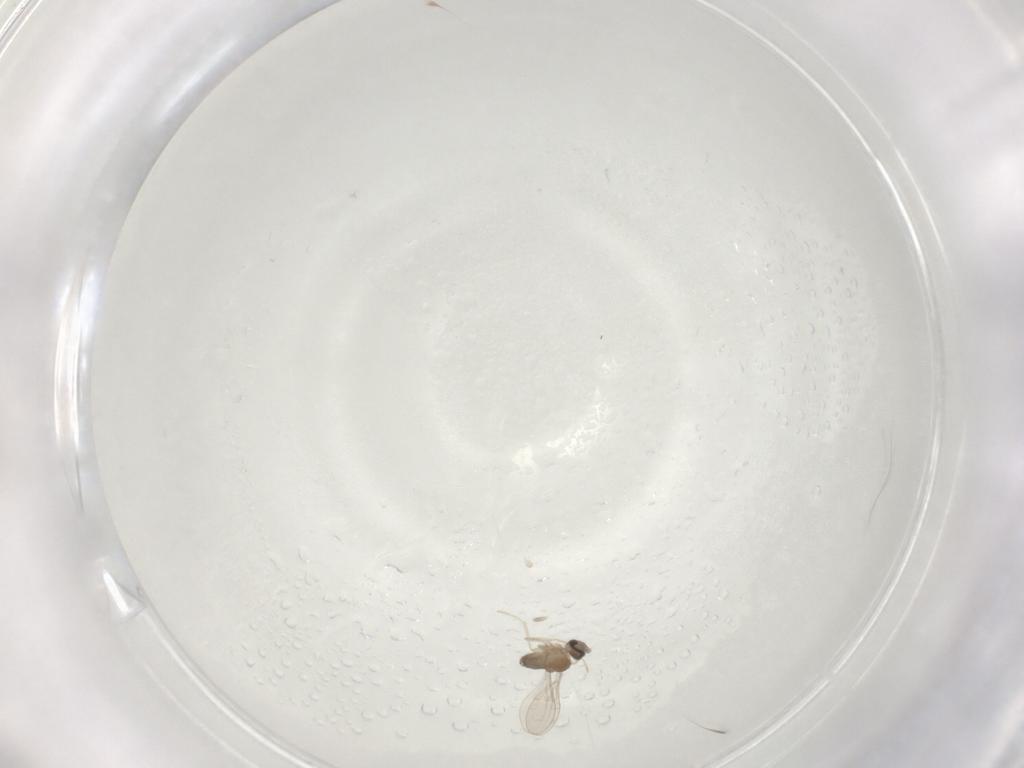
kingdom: Animalia
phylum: Arthropoda
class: Insecta
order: Diptera
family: Cecidomyiidae
